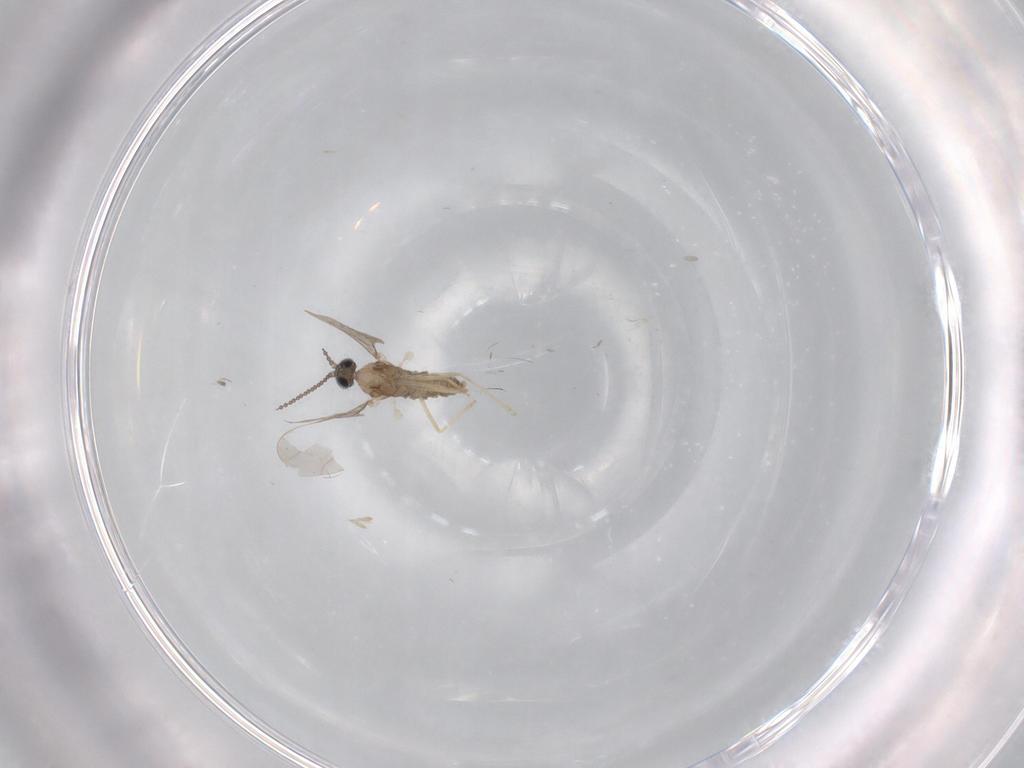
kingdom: Animalia
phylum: Arthropoda
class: Insecta
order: Diptera
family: Cecidomyiidae
